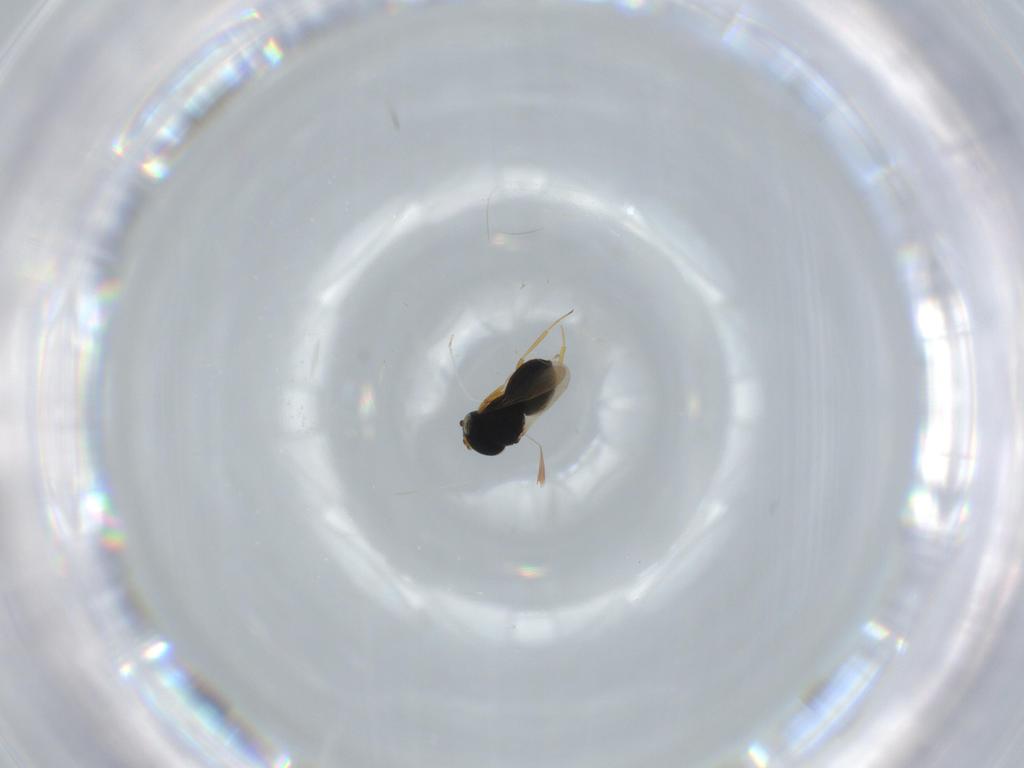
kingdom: Animalia
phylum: Arthropoda
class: Insecta
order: Hymenoptera
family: Scelionidae
